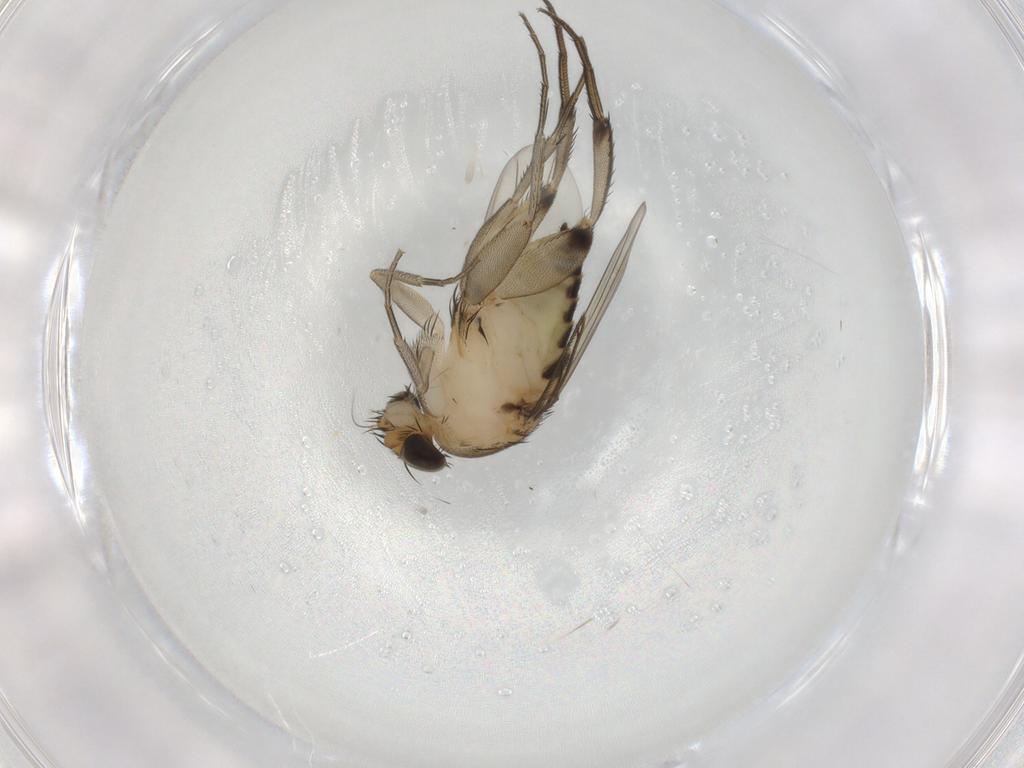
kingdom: Animalia
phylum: Arthropoda
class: Insecta
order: Diptera
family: Phoridae
